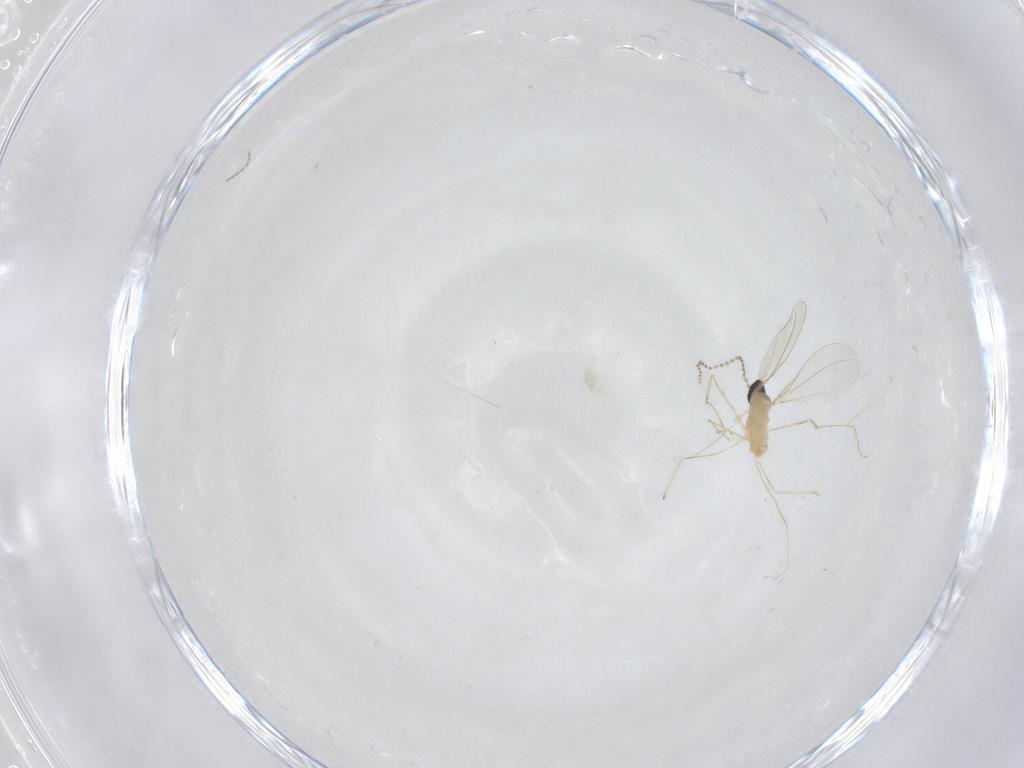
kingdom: Animalia
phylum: Arthropoda
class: Insecta
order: Diptera
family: Cecidomyiidae
